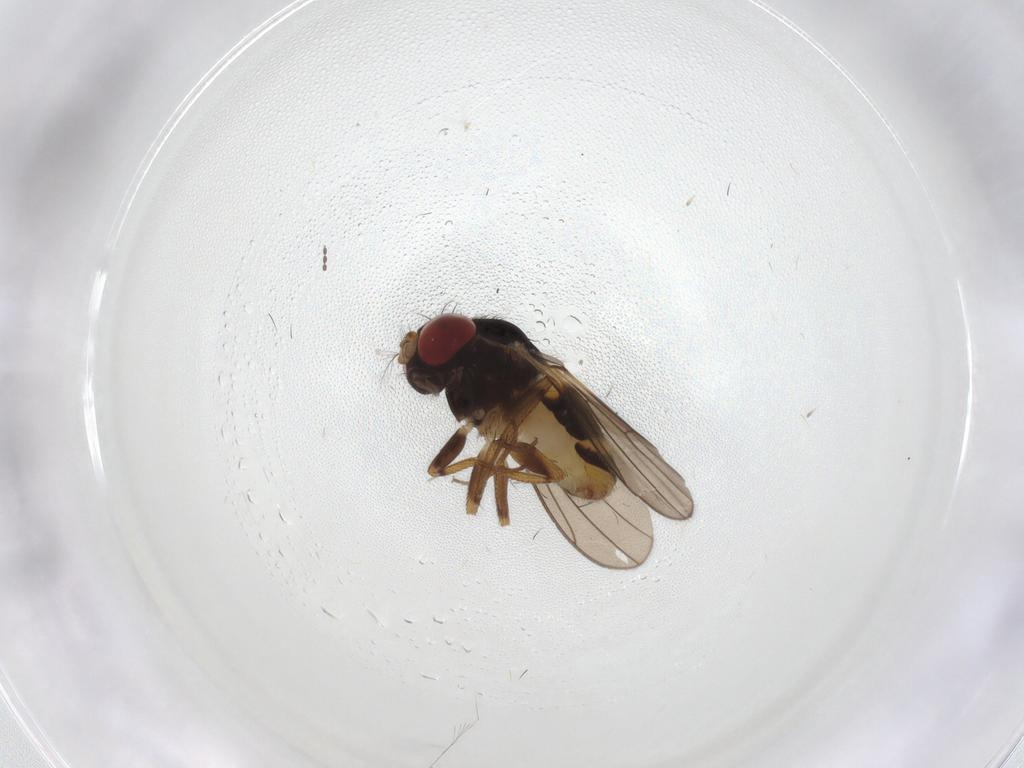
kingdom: Animalia
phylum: Arthropoda
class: Insecta
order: Diptera
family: Drosophilidae
